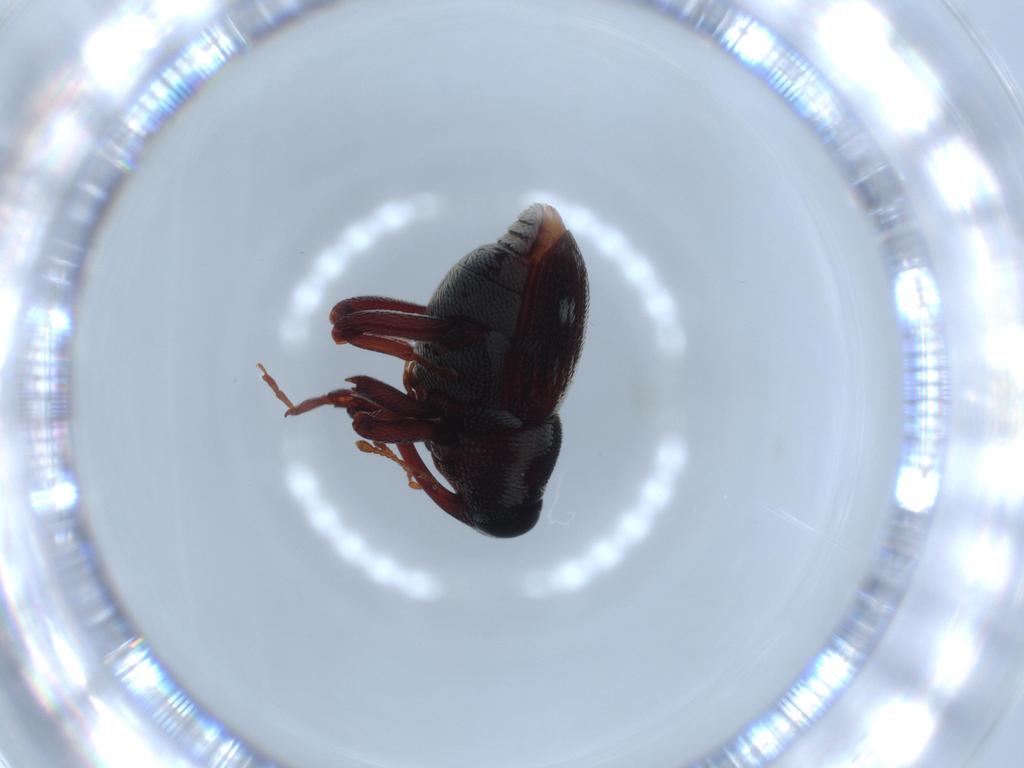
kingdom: Animalia
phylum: Arthropoda
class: Insecta
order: Coleoptera
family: Curculionidae
